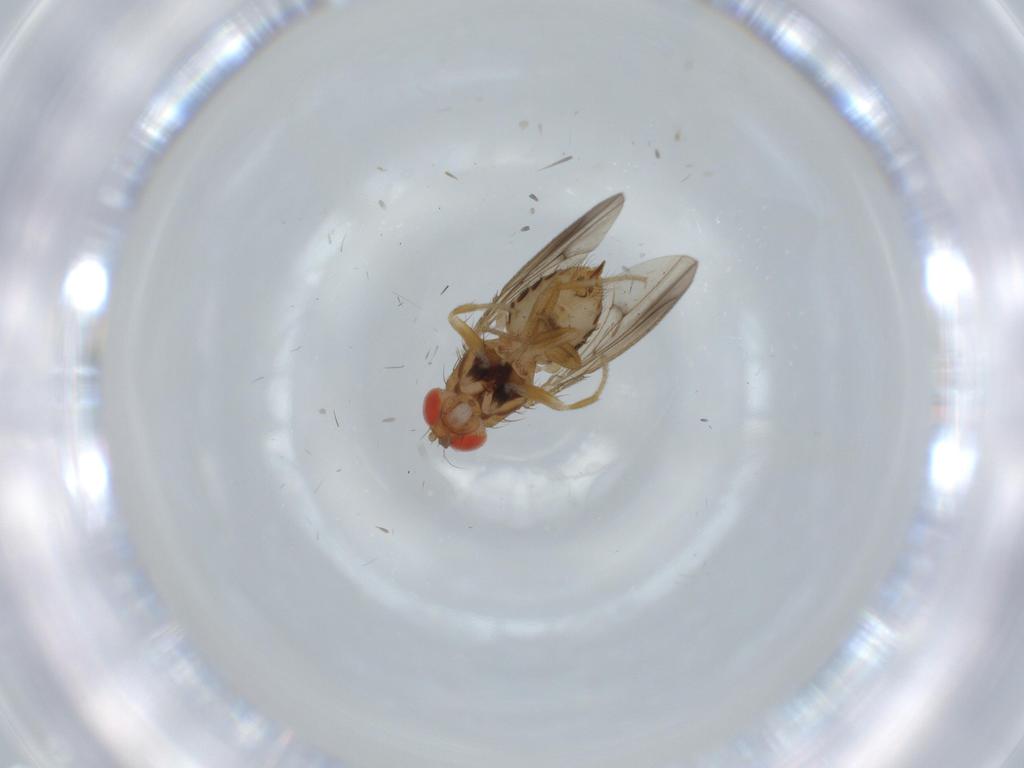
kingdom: Animalia
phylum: Arthropoda
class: Insecta
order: Diptera
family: Drosophilidae
